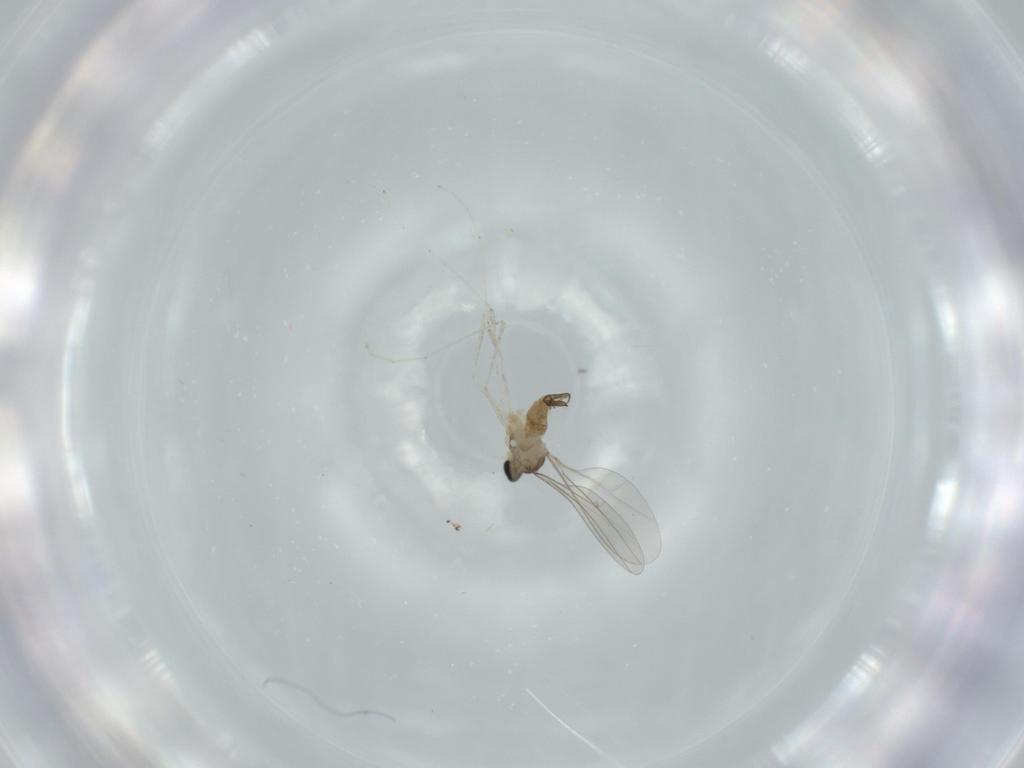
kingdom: Animalia
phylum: Arthropoda
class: Insecta
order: Diptera
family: Cecidomyiidae
